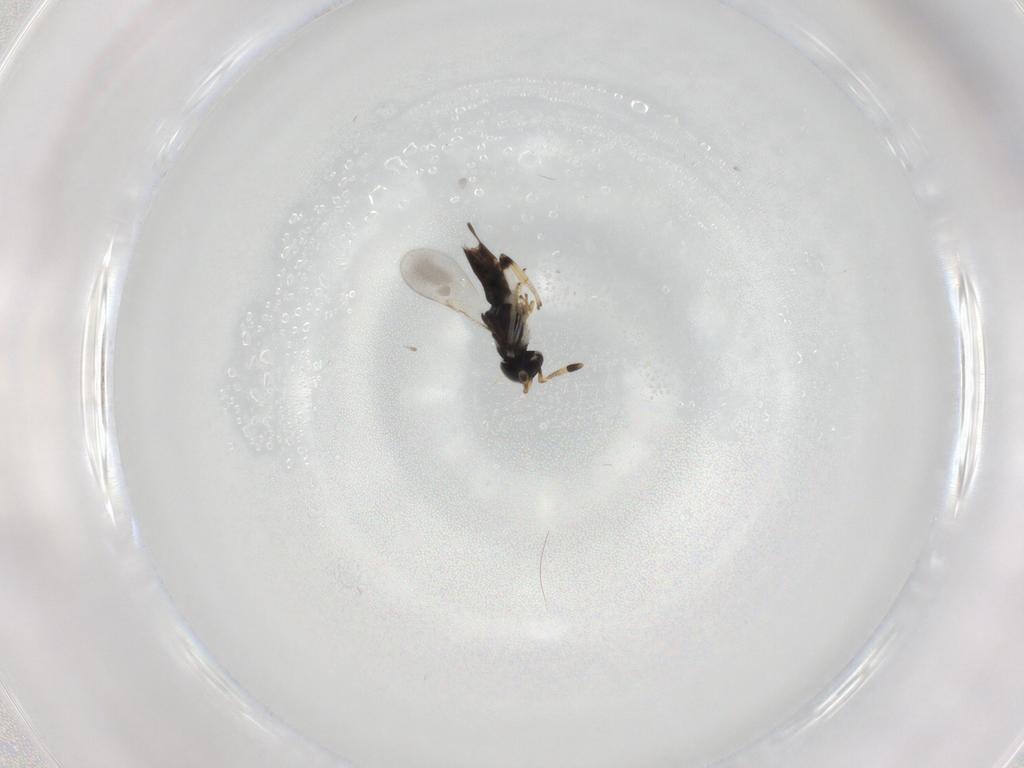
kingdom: Animalia
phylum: Arthropoda
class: Insecta
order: Hymenoptera
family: Encyrtidae
